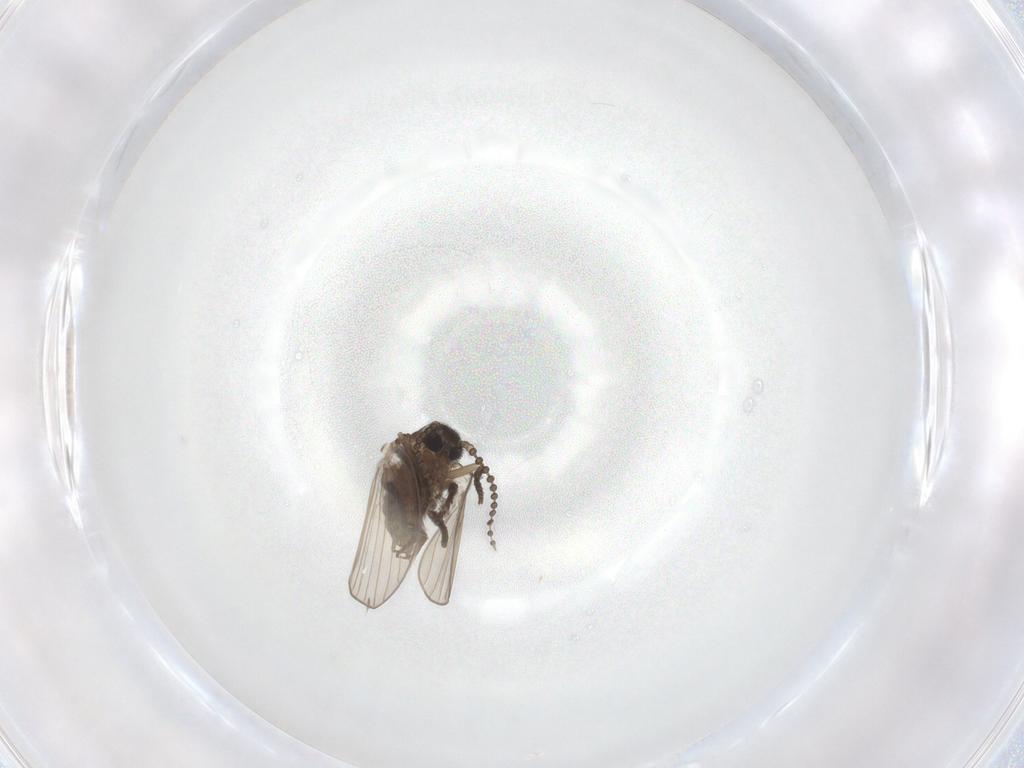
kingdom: Animalia
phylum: Arthropoda
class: Insecta
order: Diptera
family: Psychodidae
